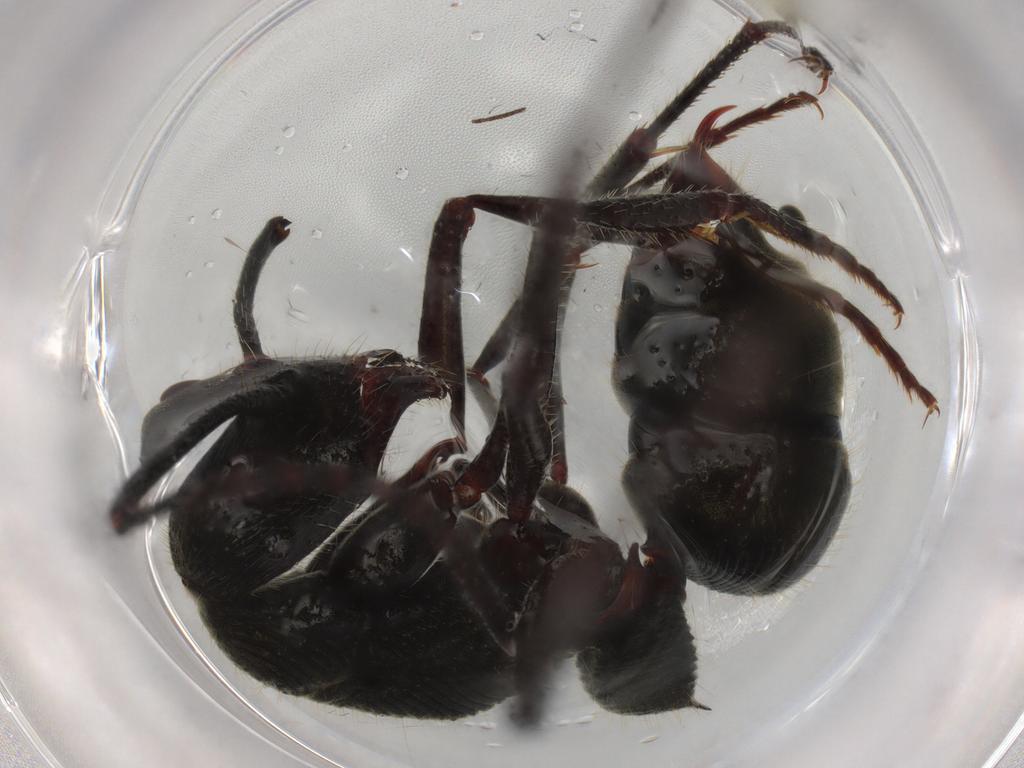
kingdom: Animalia
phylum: Arthropoda
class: Insecta
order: Hymenoptera
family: Formicidae
